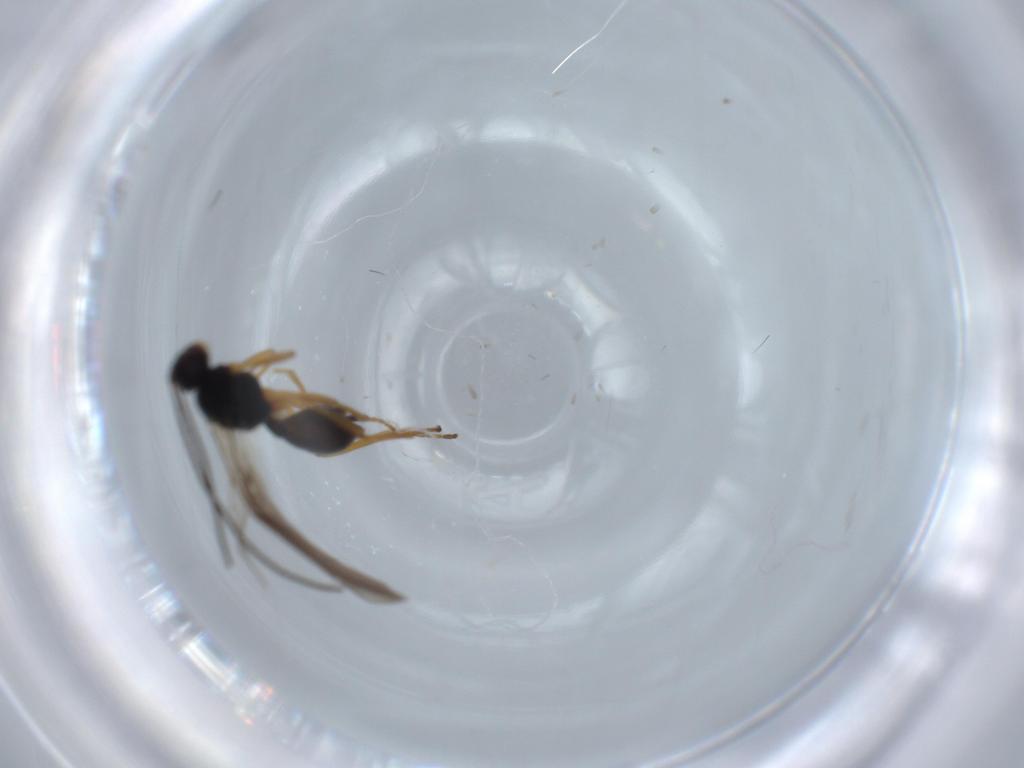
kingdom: Animalia
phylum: Arthropoda
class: Insecta
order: Hymenoptera
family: Braconidae
